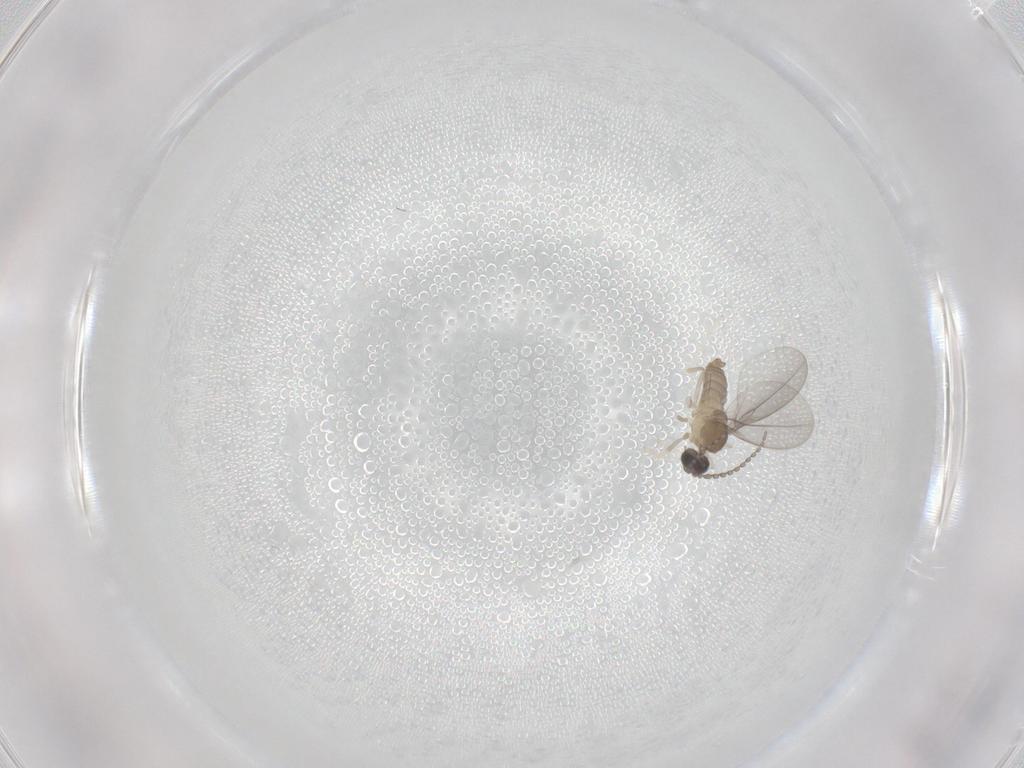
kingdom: Animalia
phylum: Arthropoda
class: Insecta
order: Diptera
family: Cecidomyiidae
